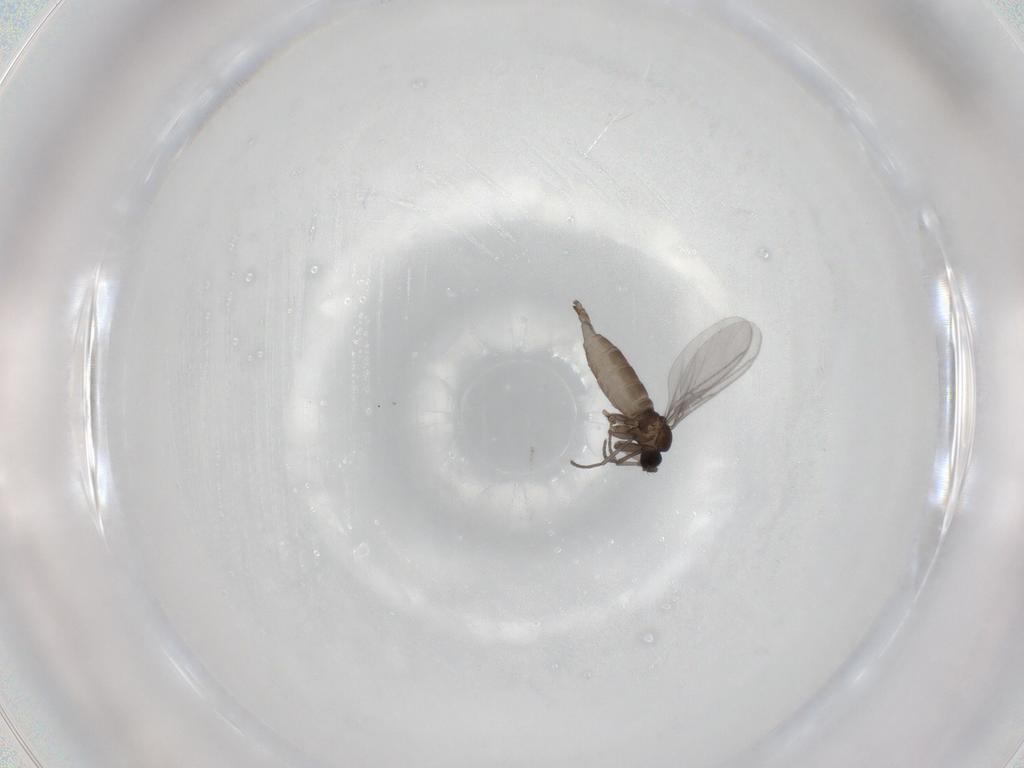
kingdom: Animalia
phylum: Arthropoda
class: Insecta
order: Diptera
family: Sciaridae
